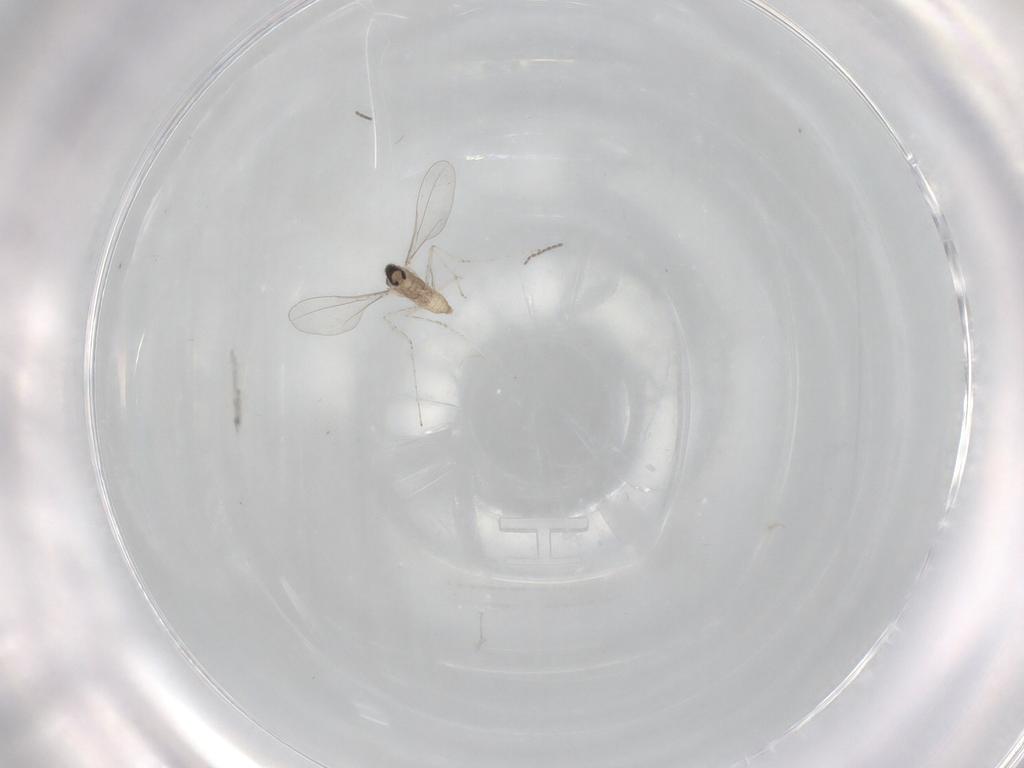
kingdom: Animalia
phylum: Arthropoda
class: Insecta
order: Diptera
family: Cecidomyiidae
